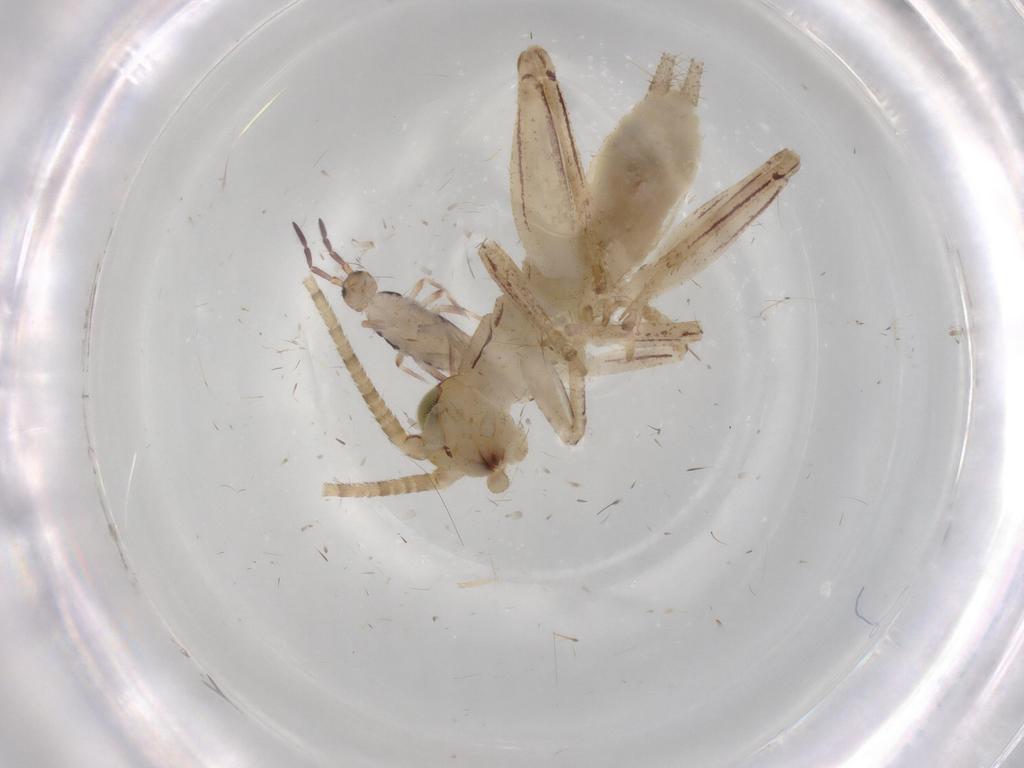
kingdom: Animalia
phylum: Arthropoda
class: Insecta
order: Orthoptera
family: Gryllidae
